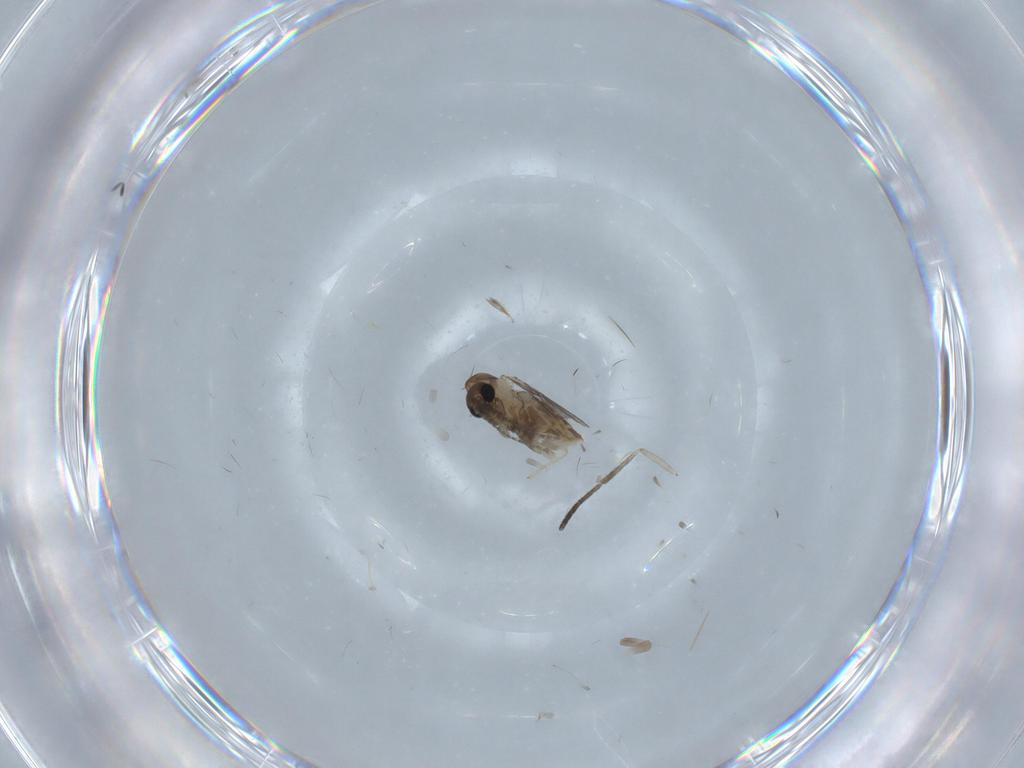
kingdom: Animalia
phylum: Arthropoda
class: Insecta
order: Diptera
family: Psychodidae
